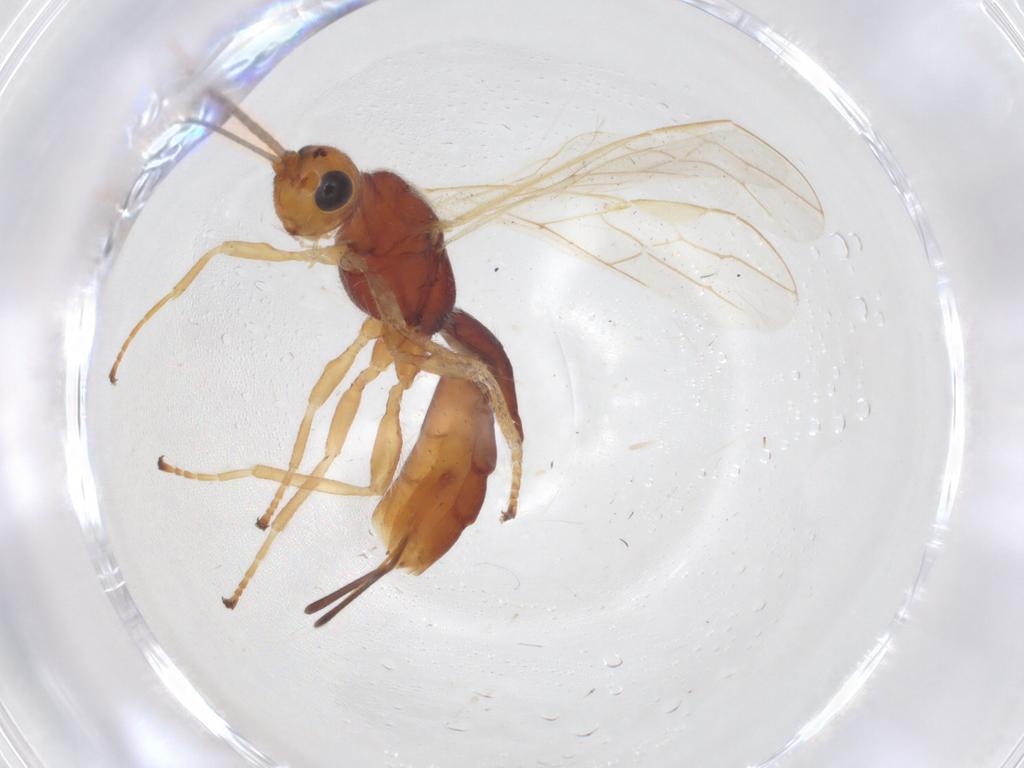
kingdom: Animalia
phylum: Arthropoda
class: Insecta
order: Hymenoptera
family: Braconidae
